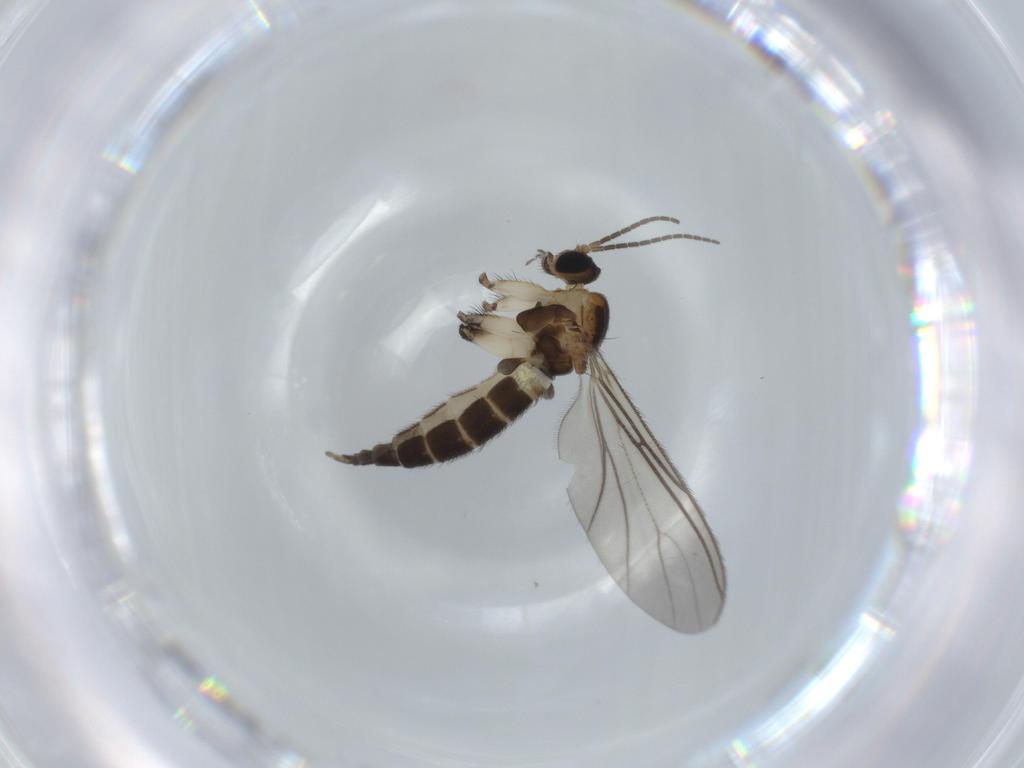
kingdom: Animalia
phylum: Arthropoda
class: Insecta
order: Diptera
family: Sciaridae
